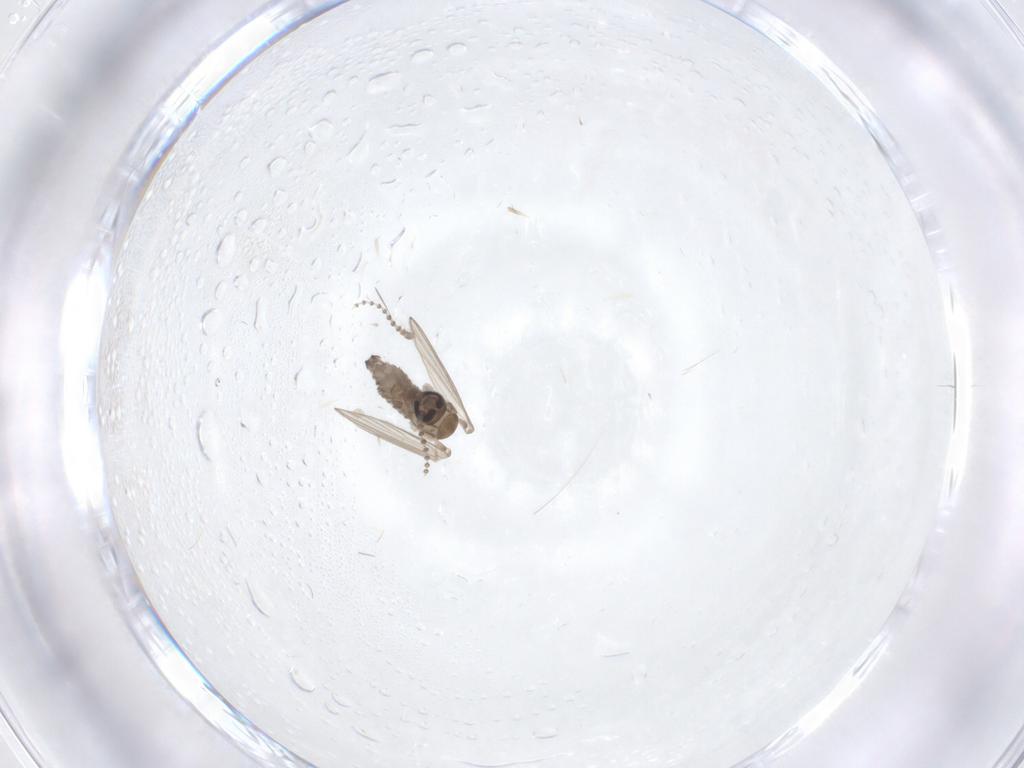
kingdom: Animalia
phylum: Arthropoda
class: Insecta
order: Diptera
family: Psychodidae
